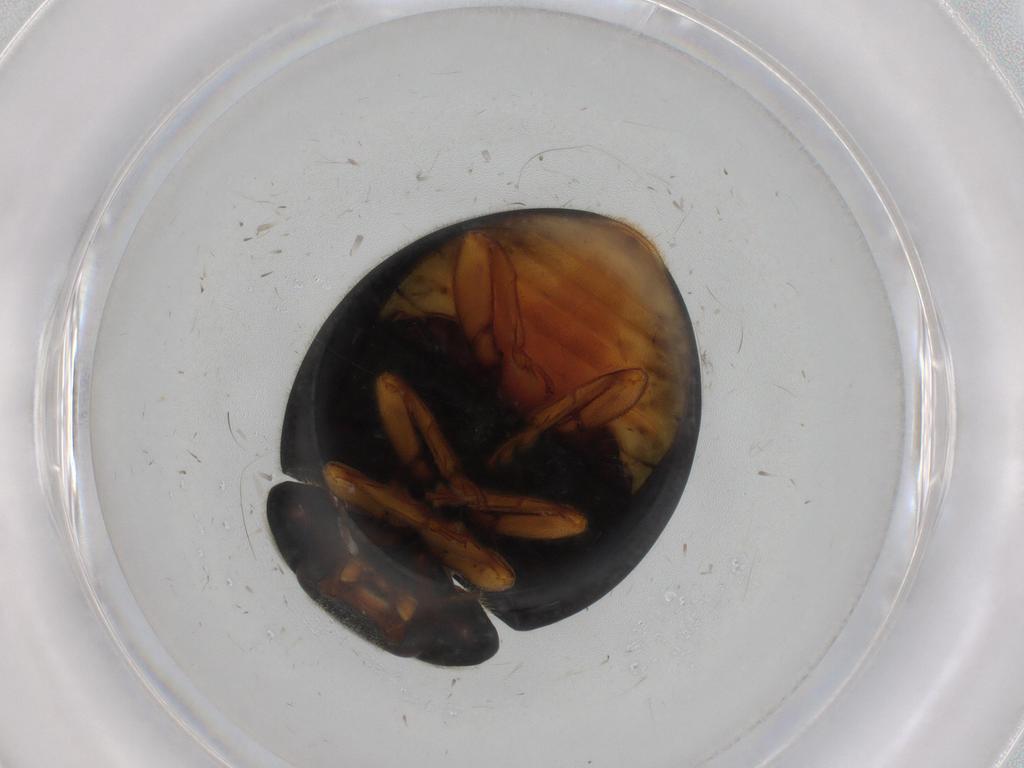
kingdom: Animalia
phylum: Arthropoda
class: Insecta
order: Coleoptera
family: Coccinellidae
